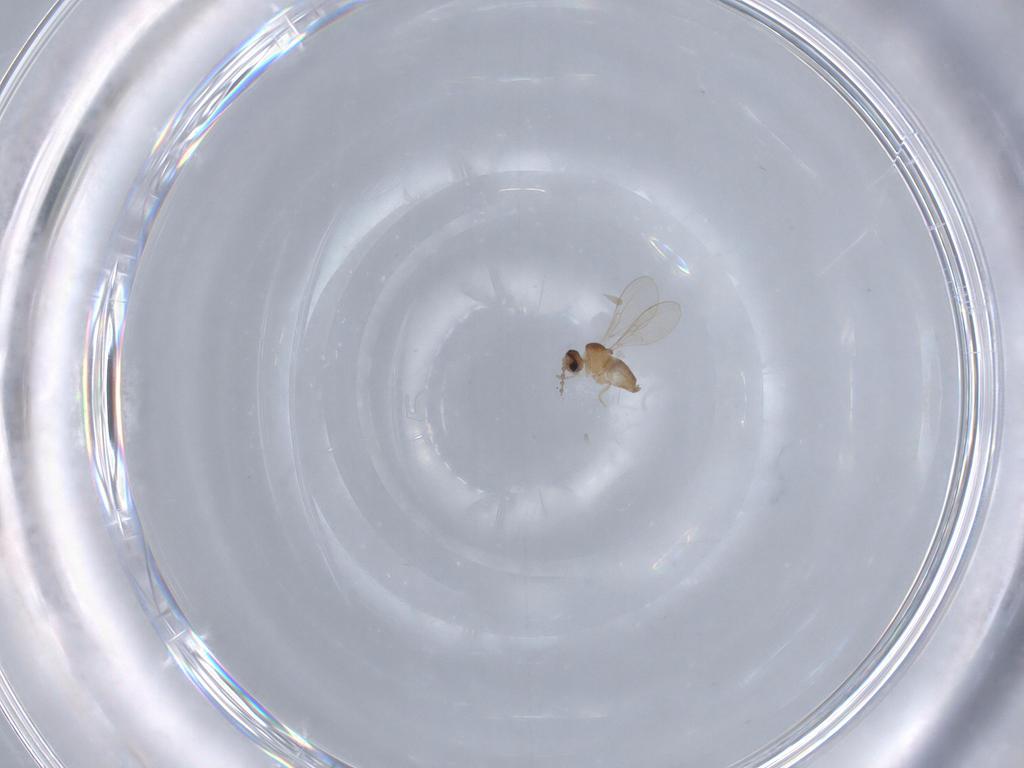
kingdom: Animalia
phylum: Arthropoda
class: Insecta
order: Diptera
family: Cecidomyiidae
